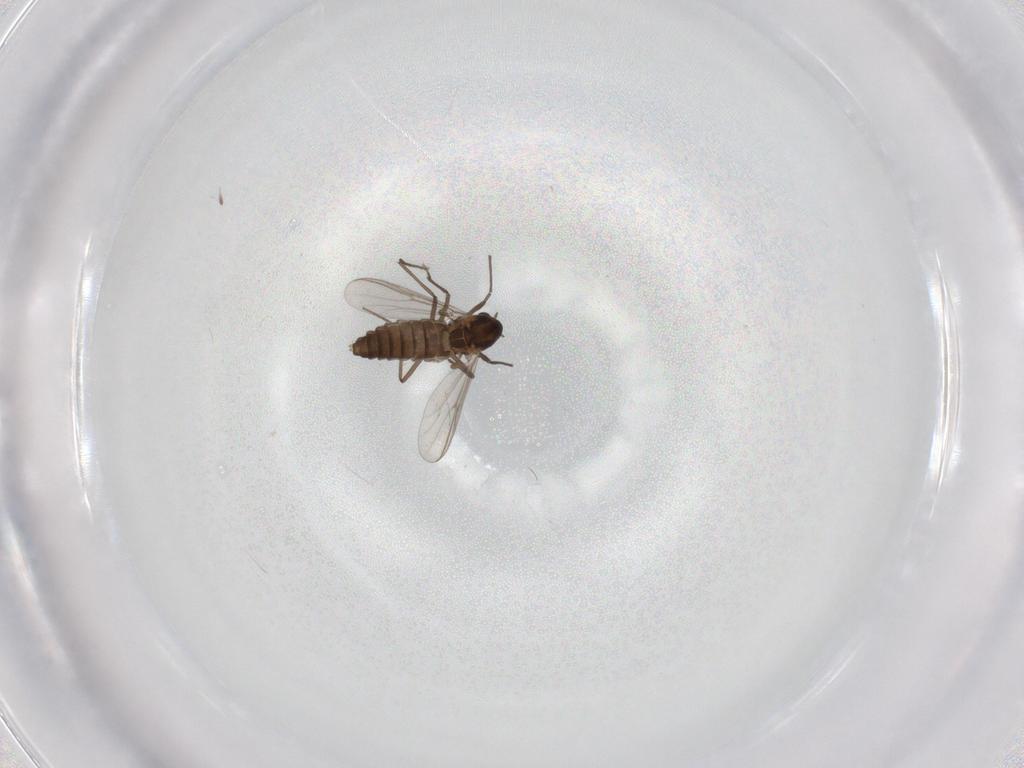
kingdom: Animalia
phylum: Arthropoda
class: Insecta
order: Diptera
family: Chironomidae
